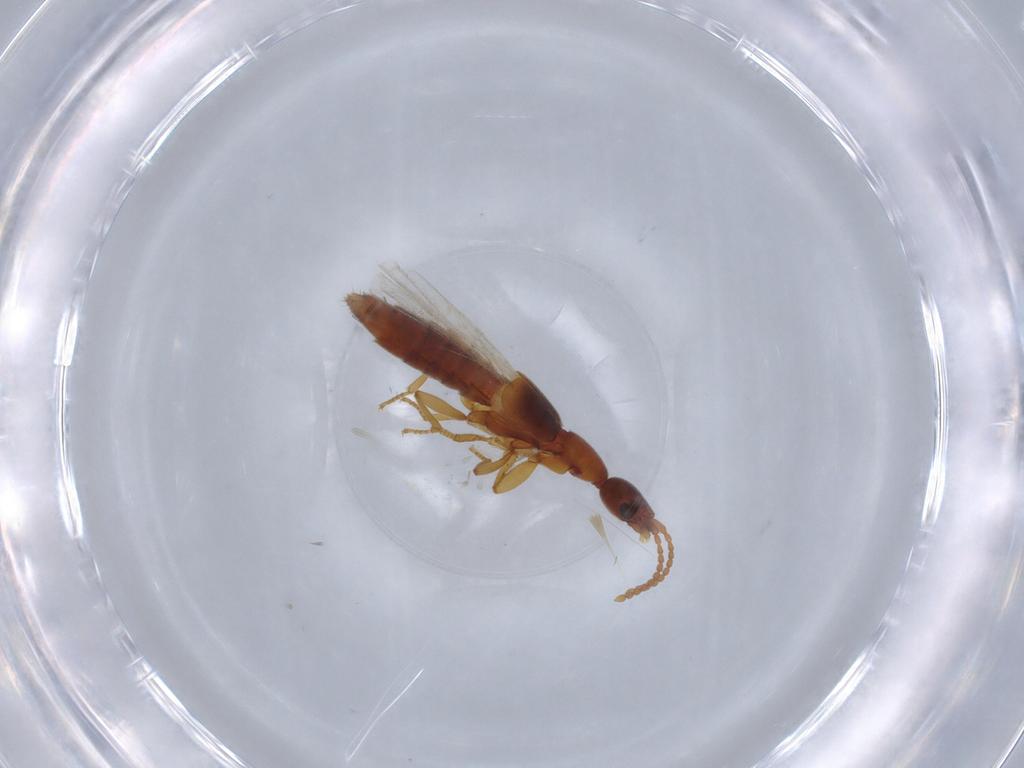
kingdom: Animalia
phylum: Arthropoda
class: Insecta
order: Coleoptera
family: Staphylinidae
